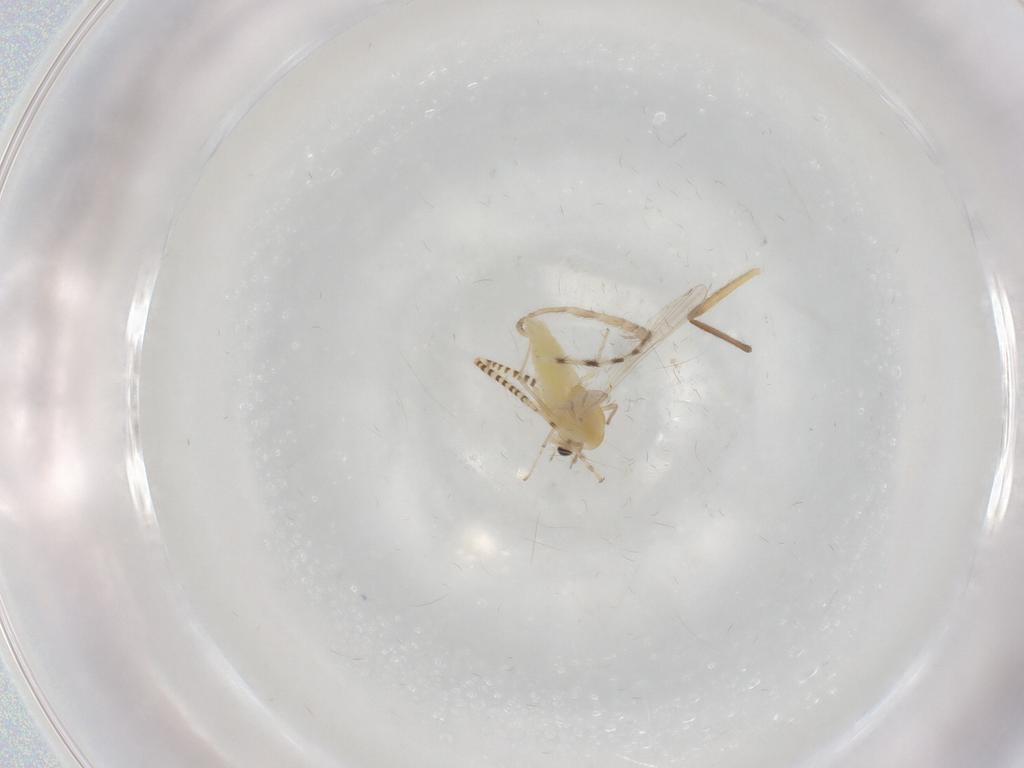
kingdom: Animalia
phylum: Arthropoda
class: Insecta
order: Diptera
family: Chironomidae
